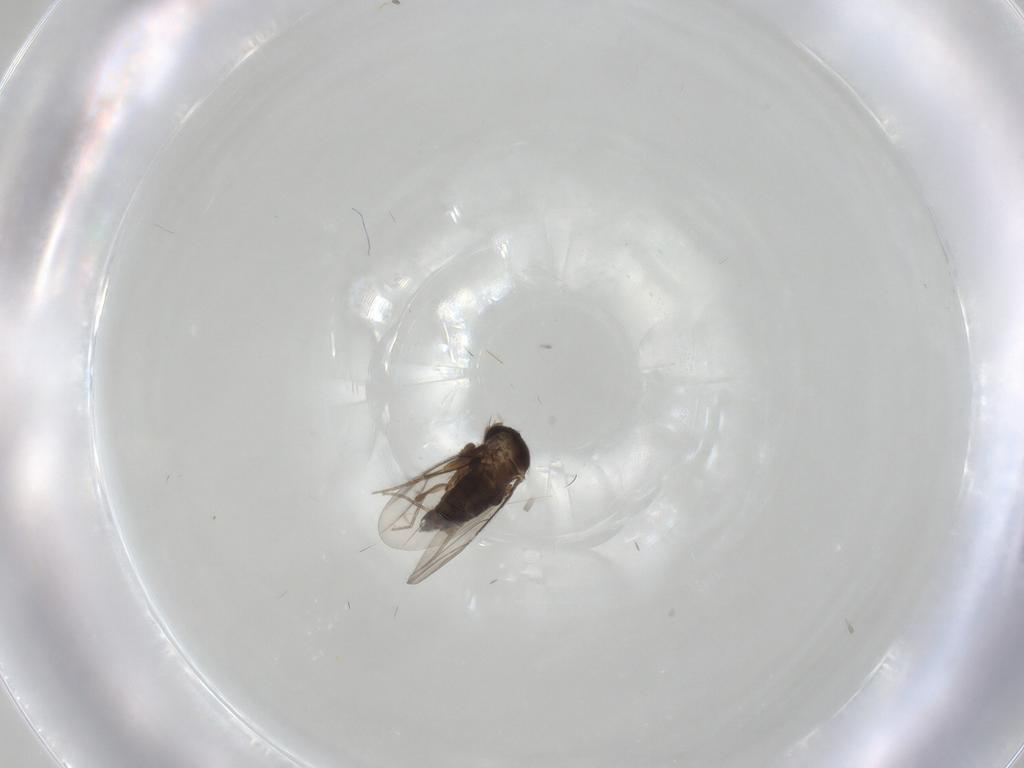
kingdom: Animalia
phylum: Arthropoda
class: Insecta
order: Diptera
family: Phoridae
